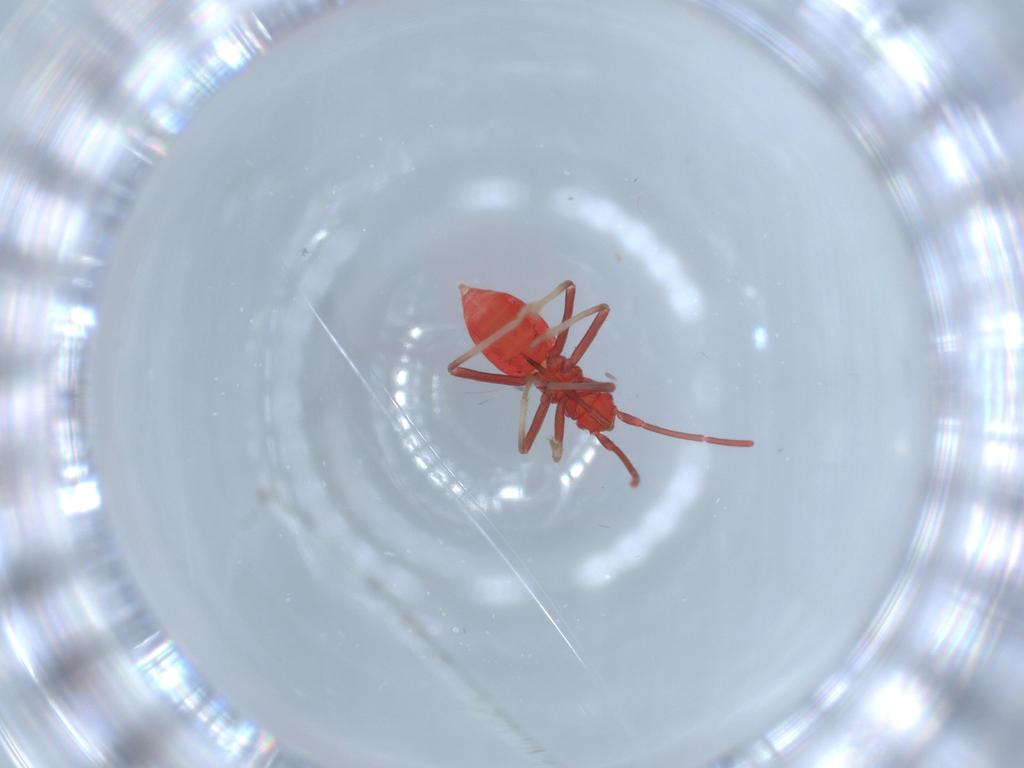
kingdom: Animalia
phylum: Arthropoda
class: Insecta
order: Hemiptera
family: Miridae
